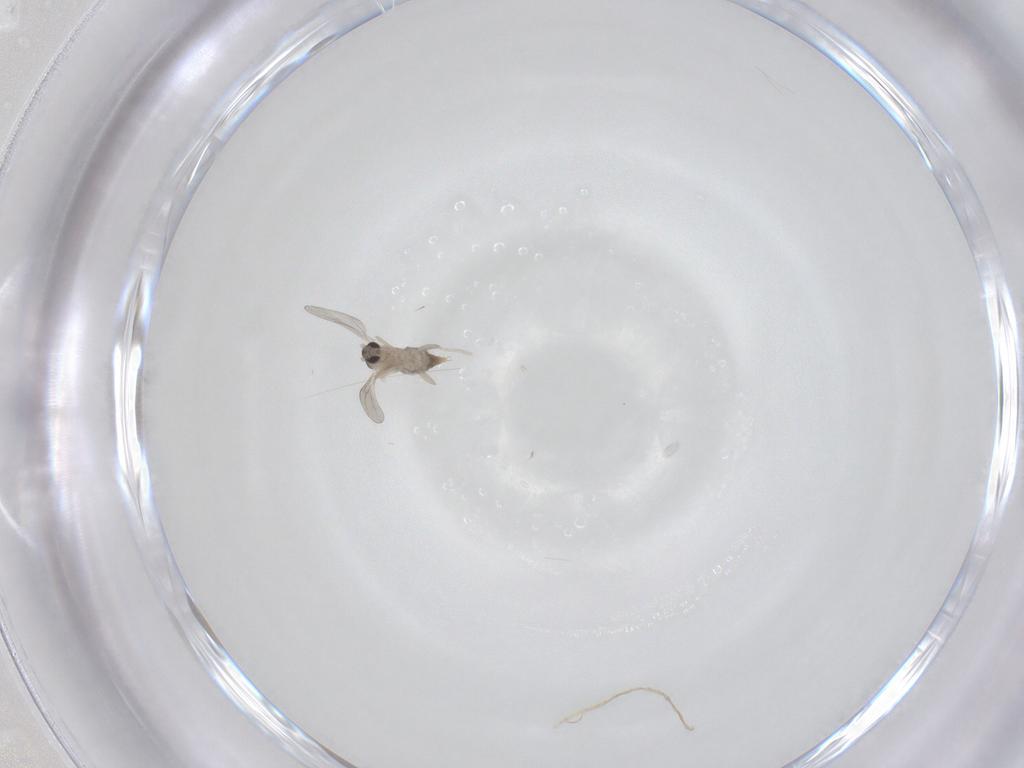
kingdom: Animalia
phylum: Arthropoda
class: Insecta
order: Diptera
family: Cecidomyiidae
